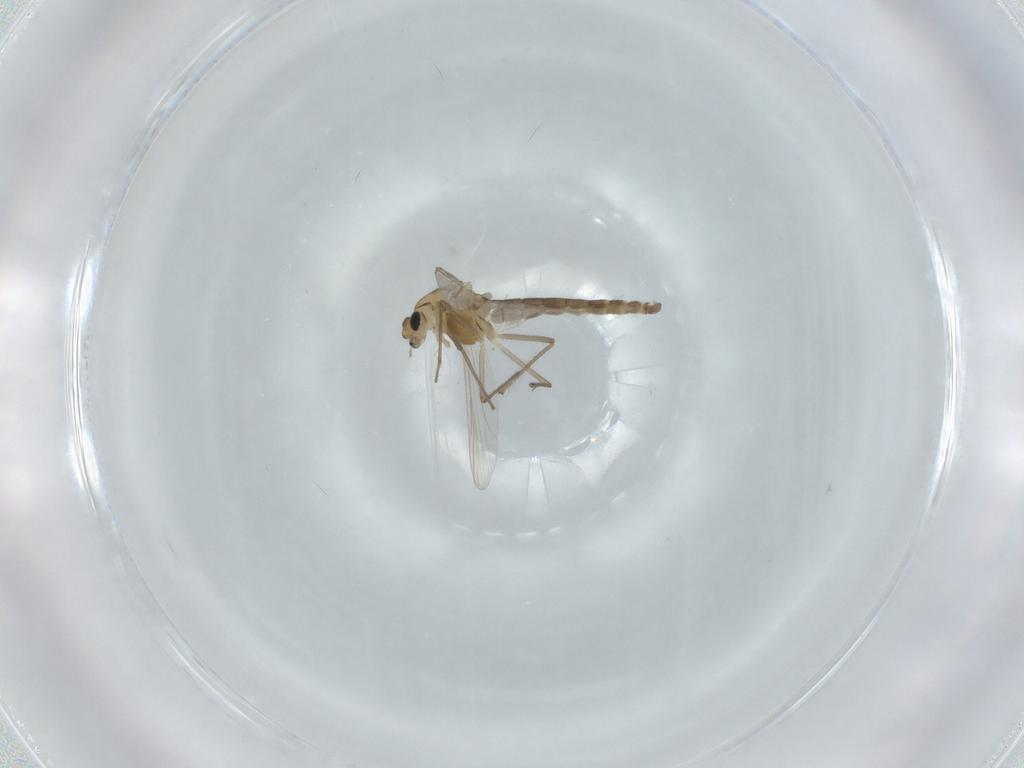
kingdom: Animalia
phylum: Arthropoda
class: Insecta
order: Diptera
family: Chironomidae
